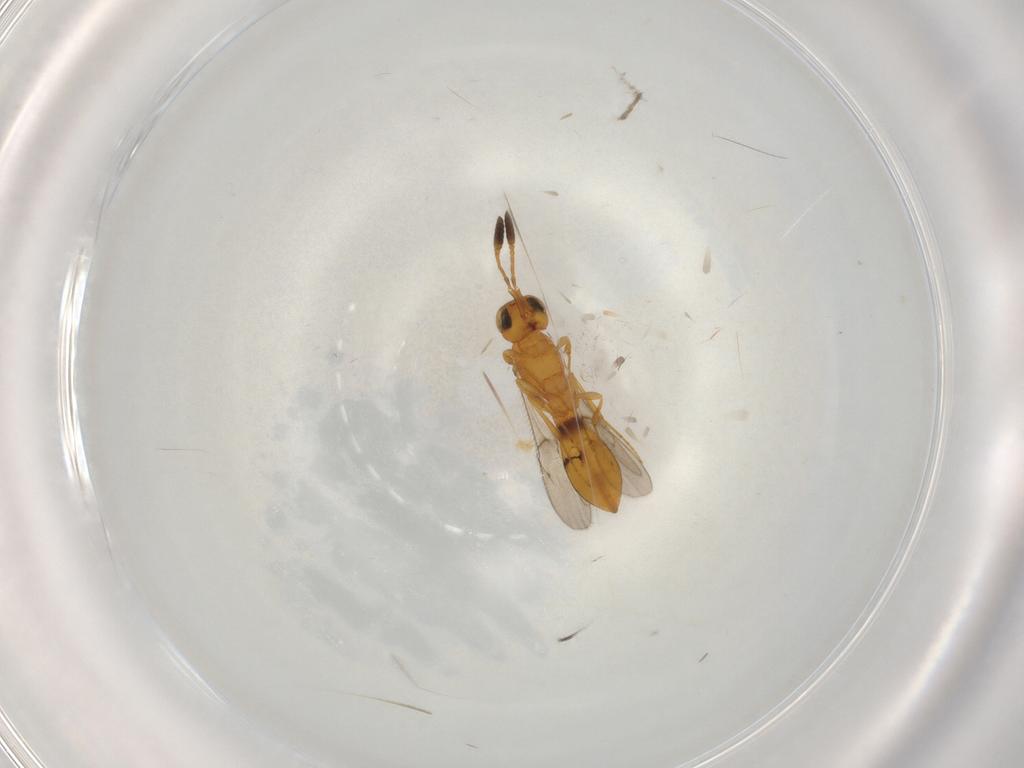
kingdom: Animalia
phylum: Arthropoda
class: Insecta
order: Hymenoptera
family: Scelionidae
